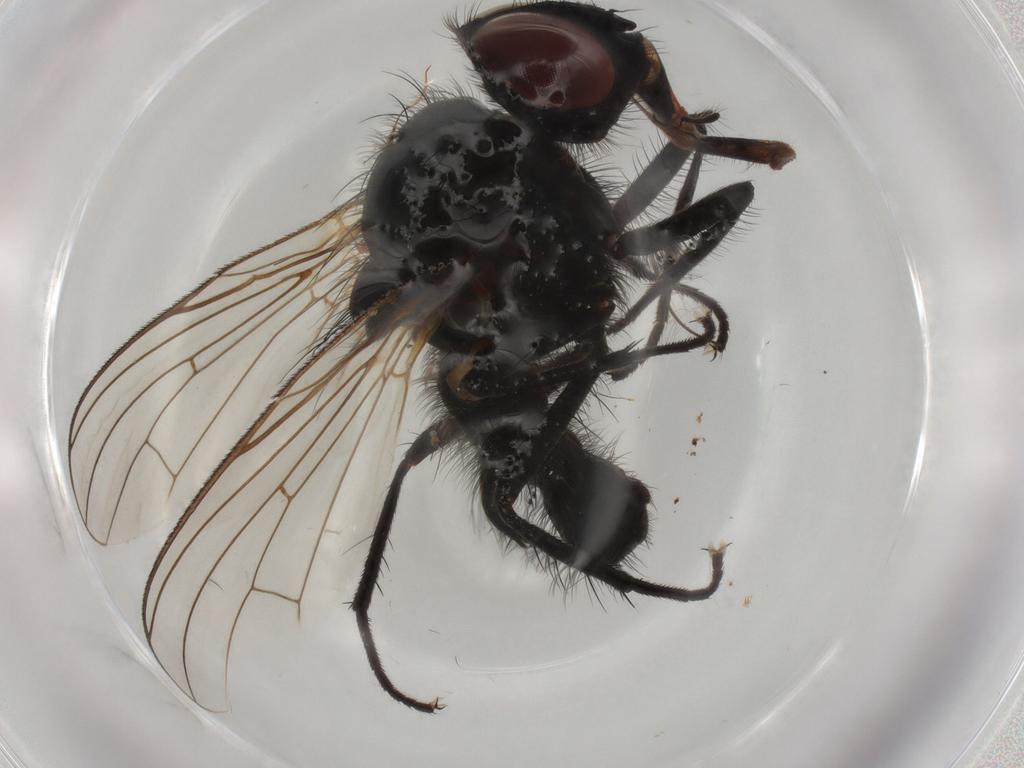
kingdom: Animalia
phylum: Arthropoda
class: Insecta
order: Diptera
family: Anthomyiidae
